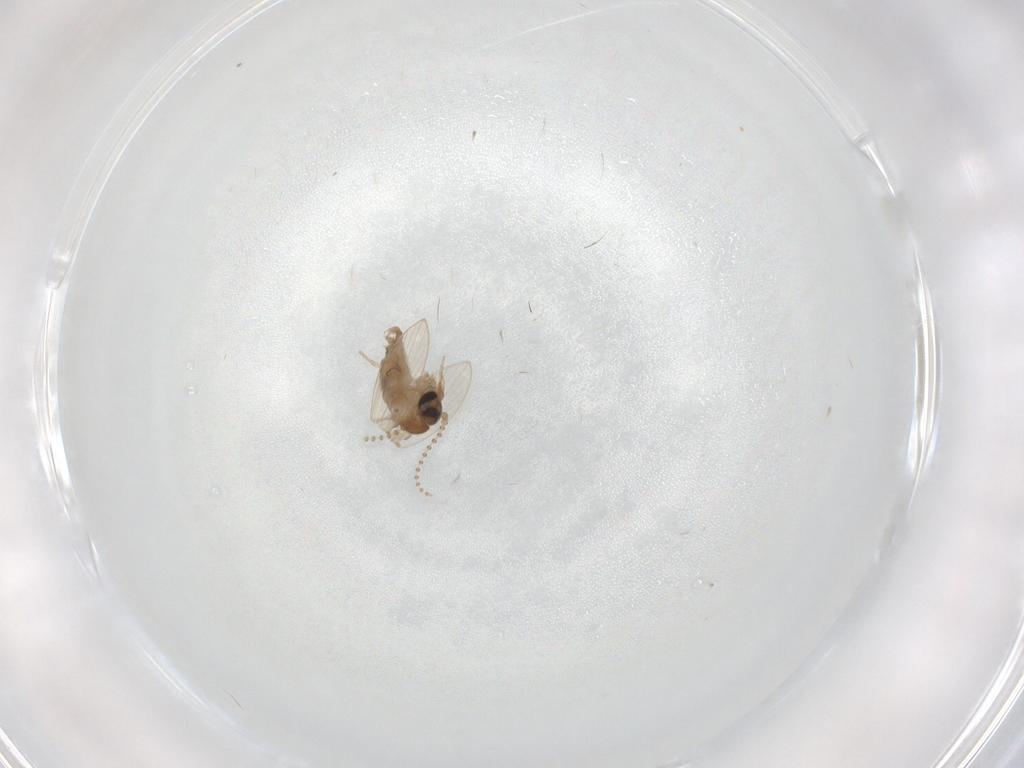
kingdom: Animalia
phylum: Arthropoda
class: Insecta
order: Diptera
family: Psychodidae
